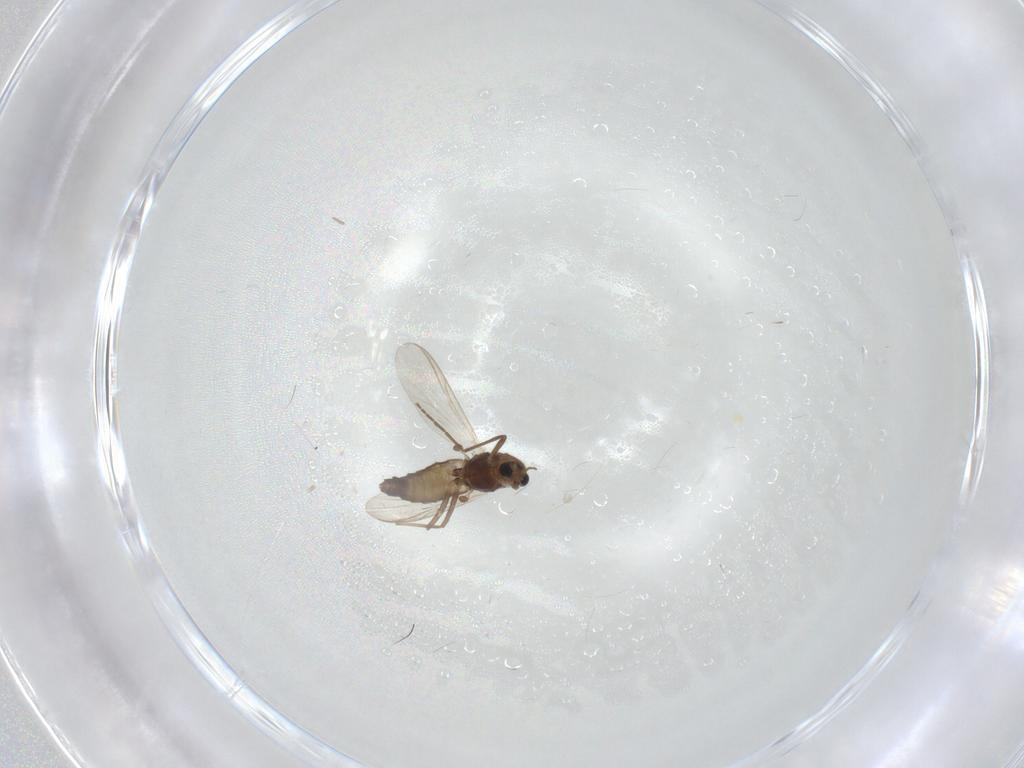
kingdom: Animalia
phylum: Arthropoda
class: Insecta
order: Diptera
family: Chironomidae
